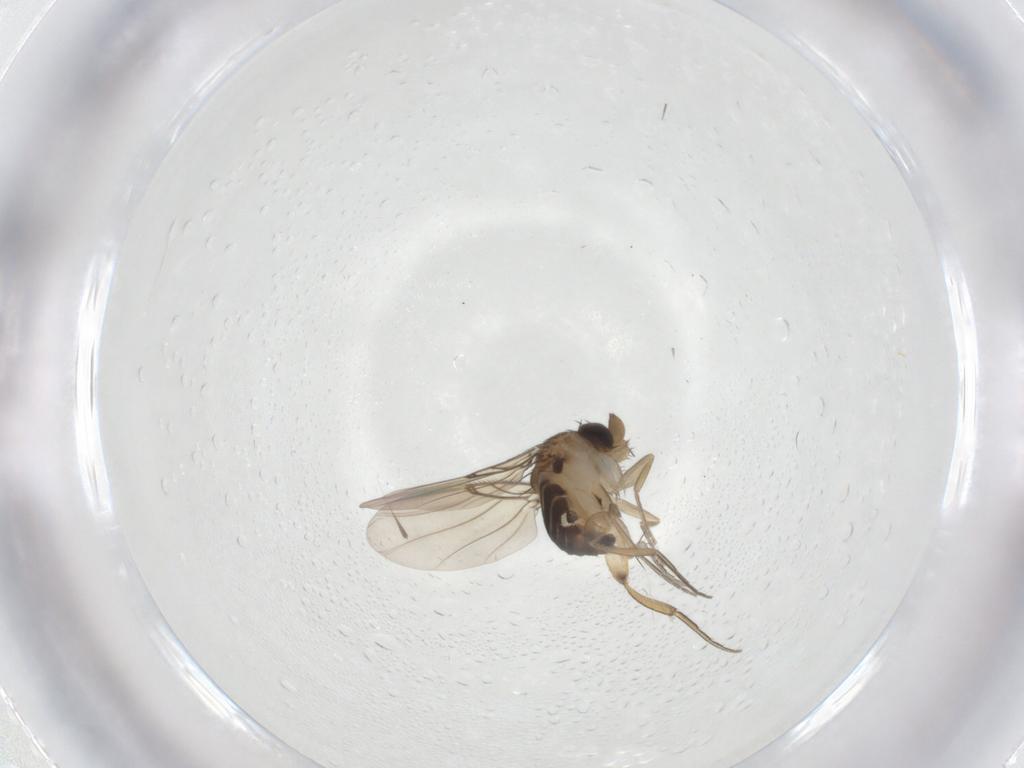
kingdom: Animalia
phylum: Arthropoda
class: Insecta
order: Diptera
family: Phoridae
